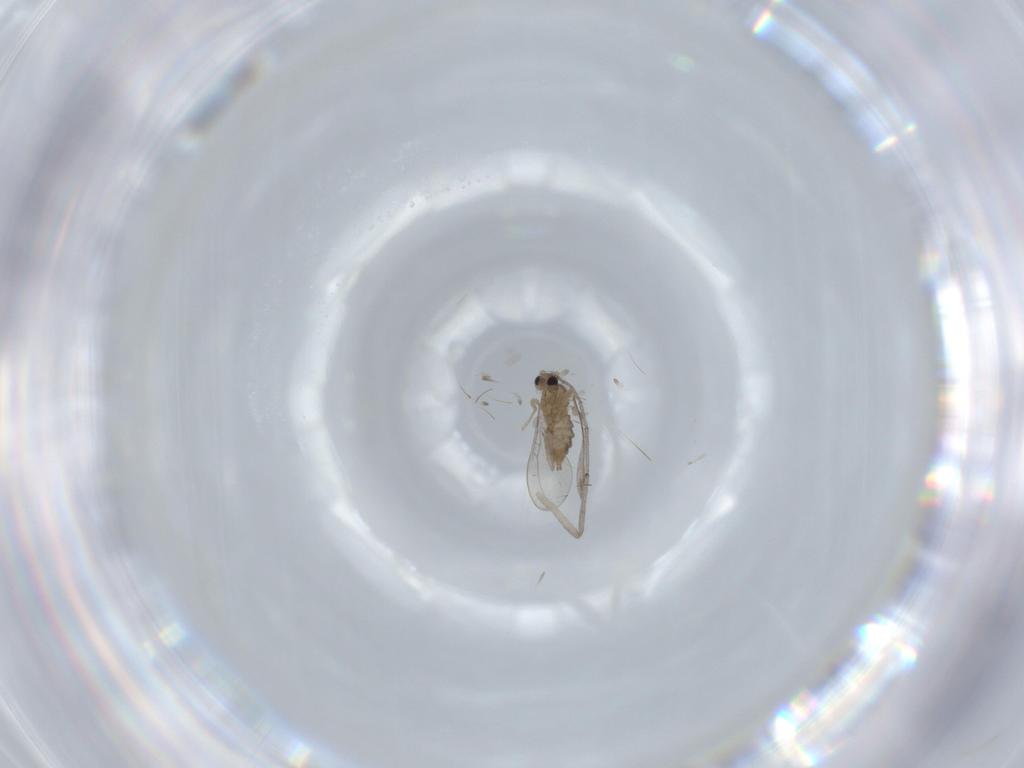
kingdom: Animalia
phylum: Arthropoda
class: Insecta
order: Diptera
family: Cecidomyiidae
